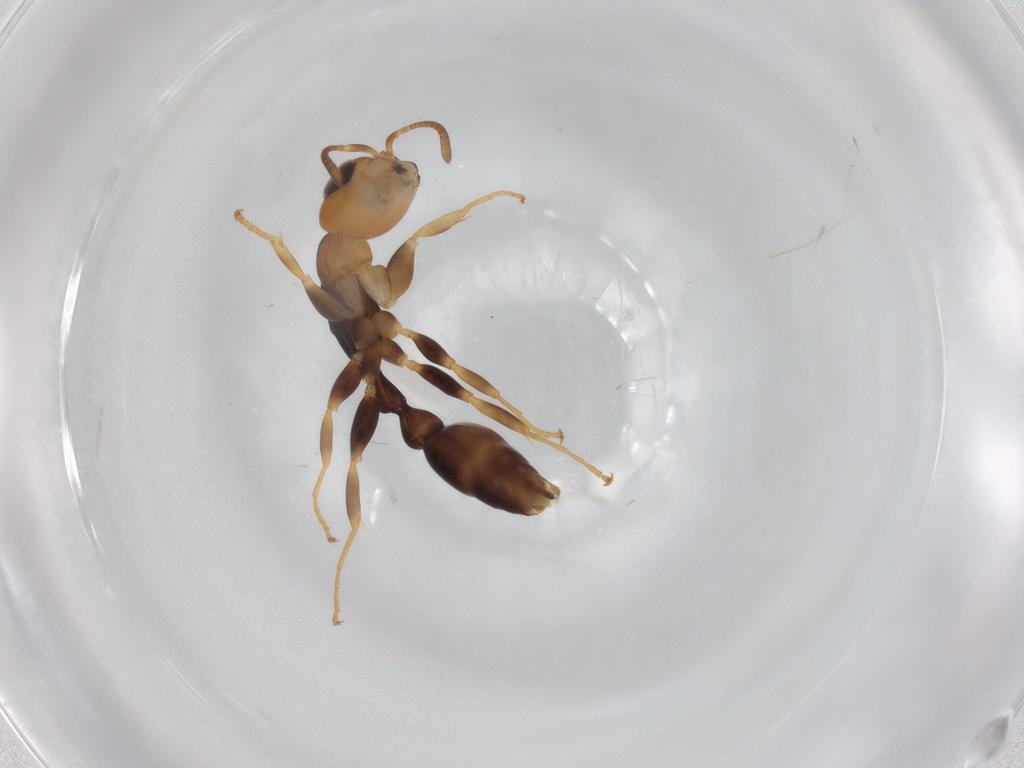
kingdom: Animalia
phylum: Arthropoda
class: Insecta
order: Hymenoptera
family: Formicidae
